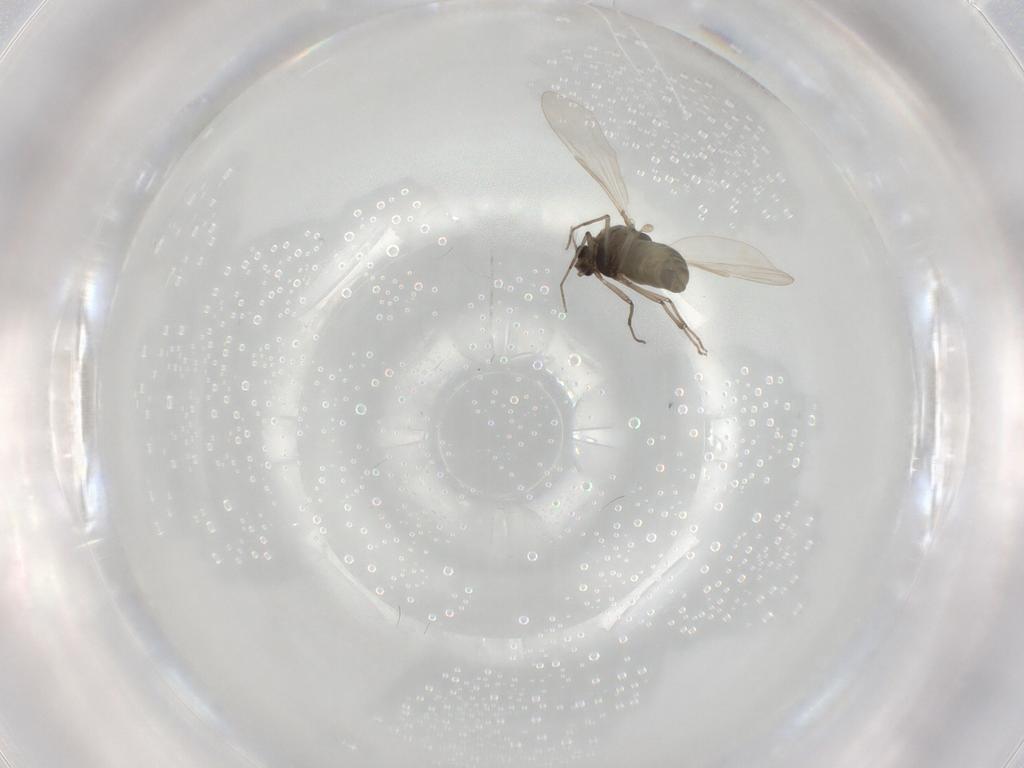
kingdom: Animalia
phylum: Arthropoda
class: Insecta
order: Diptera
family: Chironomidae
